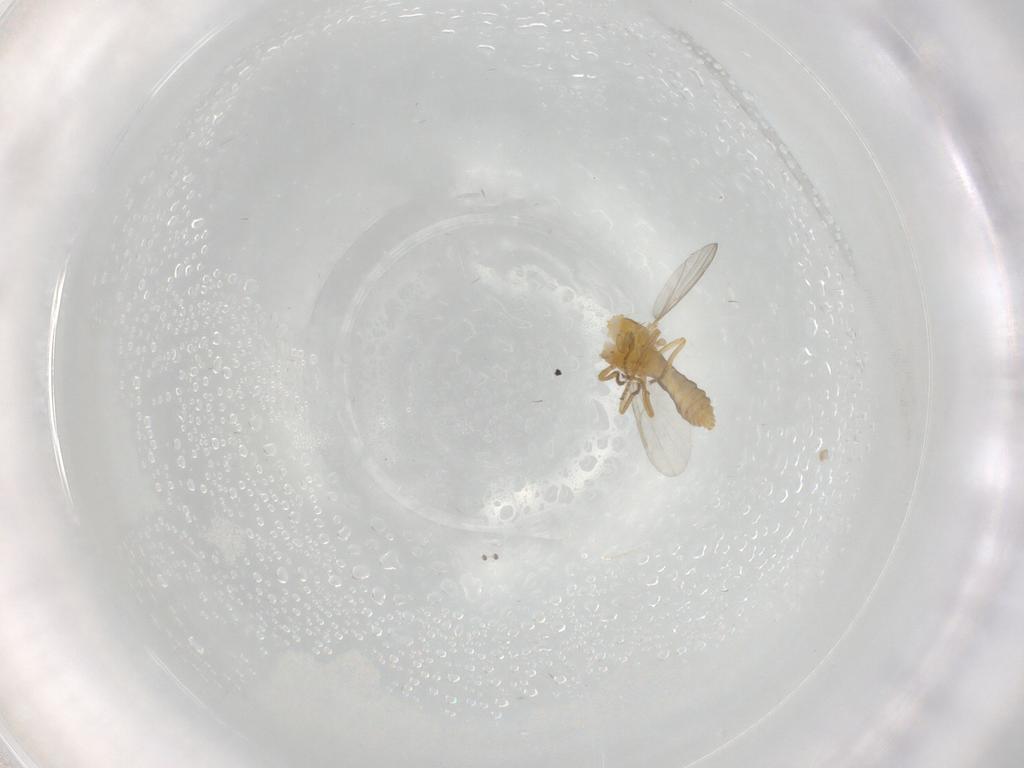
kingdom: Animalia
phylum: Arthropoda
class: Insecta
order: Diptera
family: Ceratopogonidae
